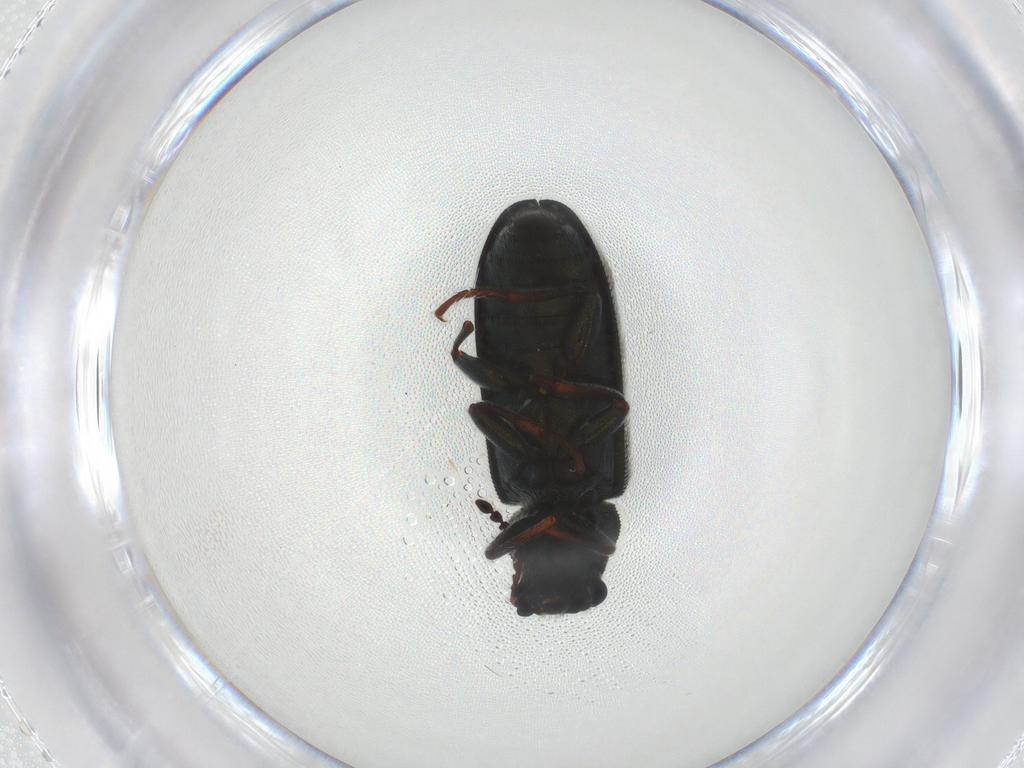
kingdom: Animalia
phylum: Arthropoda
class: Insecta
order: Coleoptera
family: Melyridae
